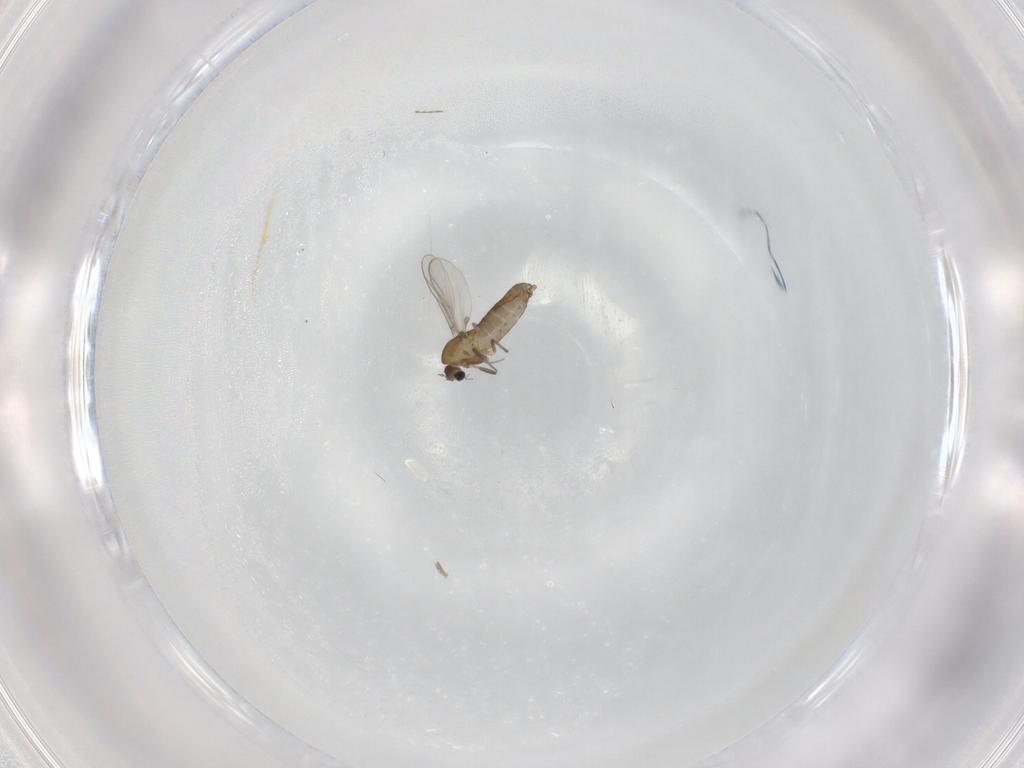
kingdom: Animalia
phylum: Arthropoda
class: Insecta
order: Diptera
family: Chironomidae
